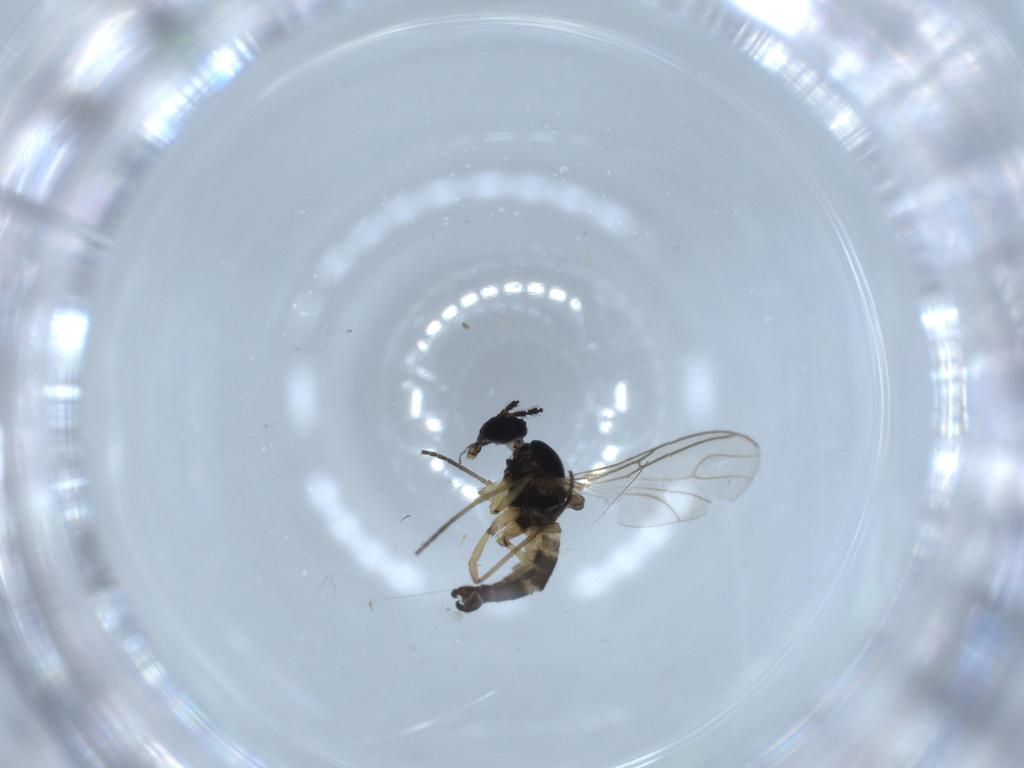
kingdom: Animalia
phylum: Arthropoda
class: Insecta
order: Diptera
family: Sciaridae
